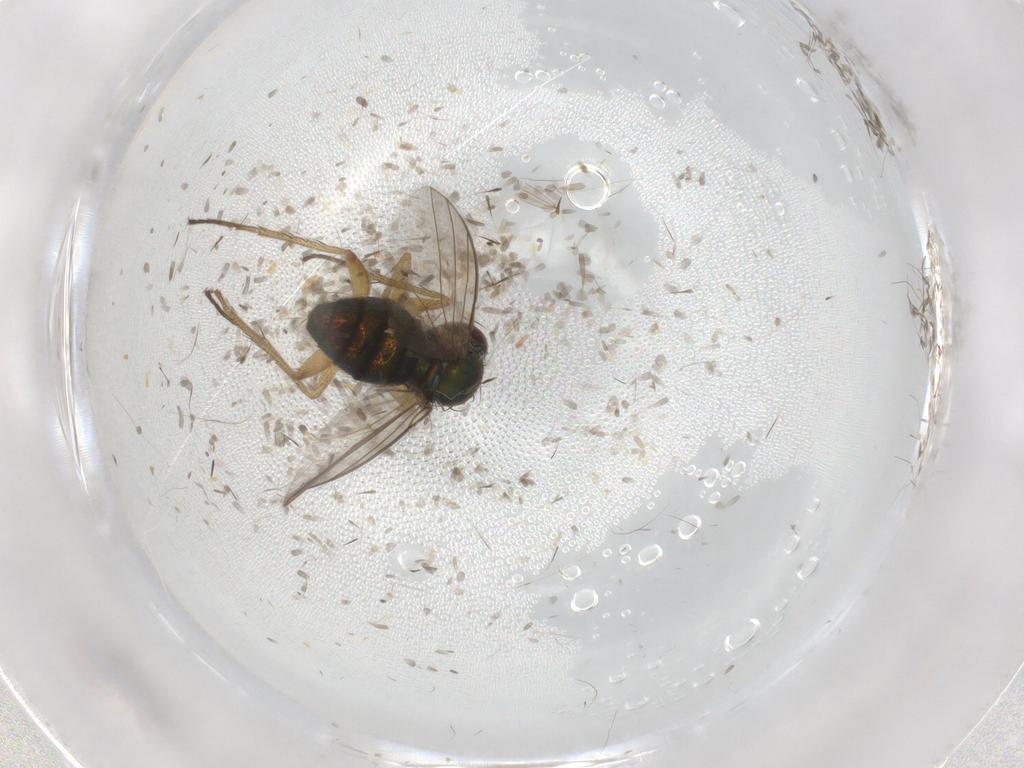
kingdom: Animalia
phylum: Arthropoda
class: Insecta
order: Diptera
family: Chironomidae
